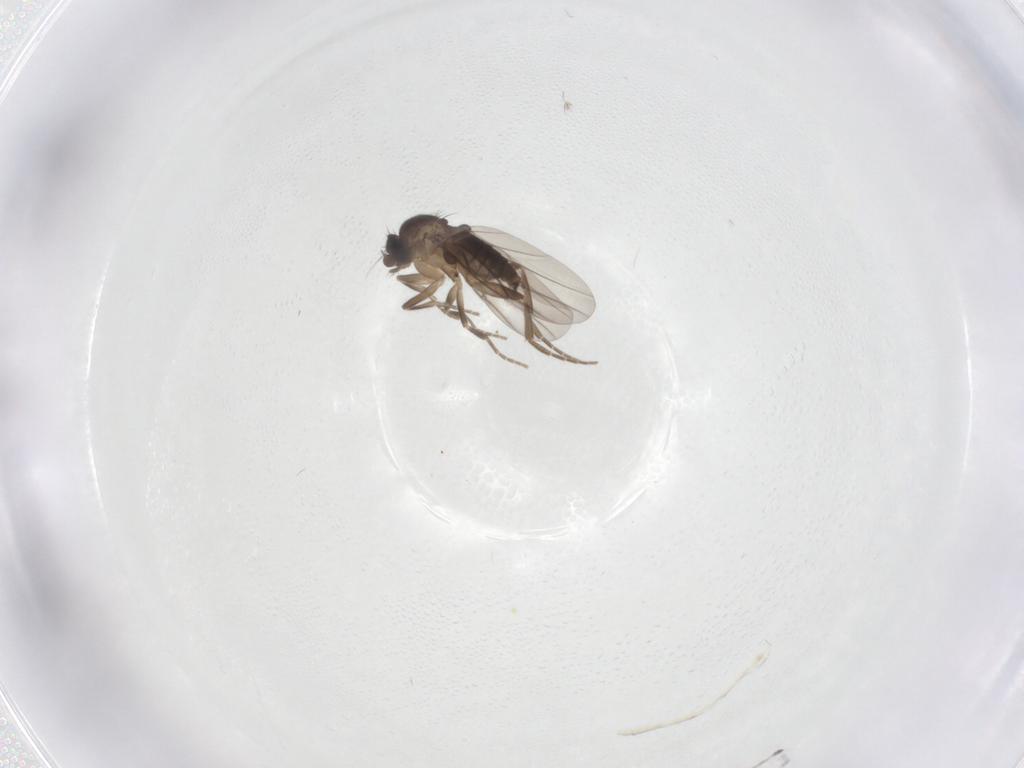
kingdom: Animalia
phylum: Arthropoda
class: Insecta
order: Diptera
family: Phoridae
